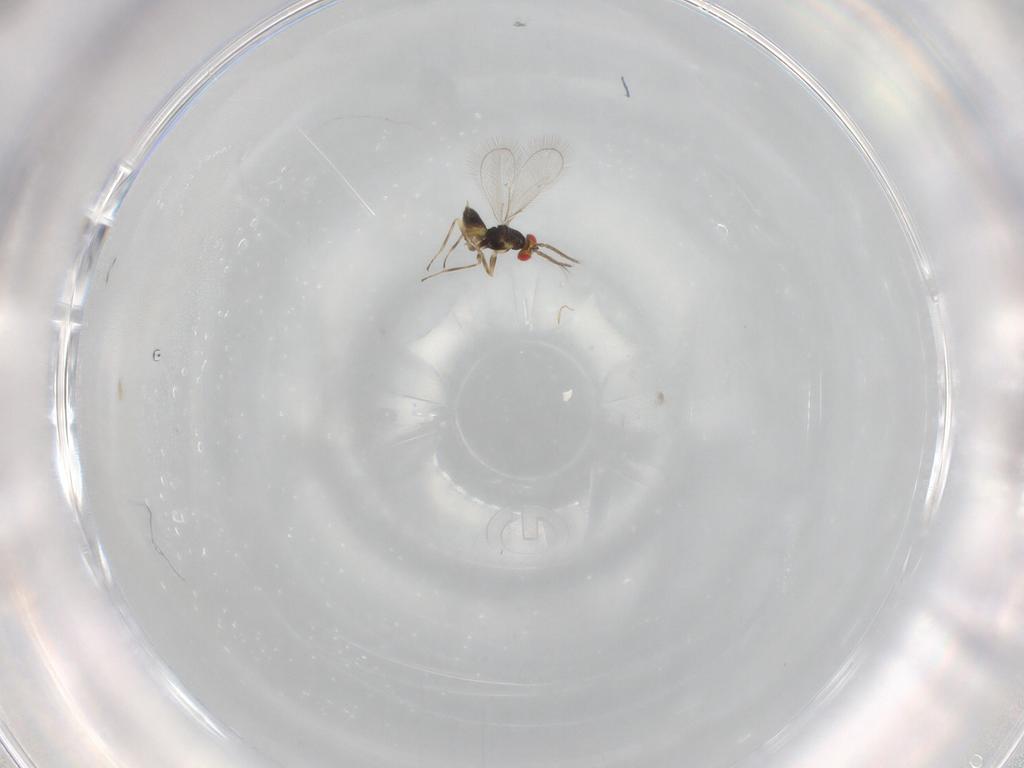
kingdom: Animalia
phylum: Arthropoda
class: Insecta
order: Hymenoptera
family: Eulophidae
